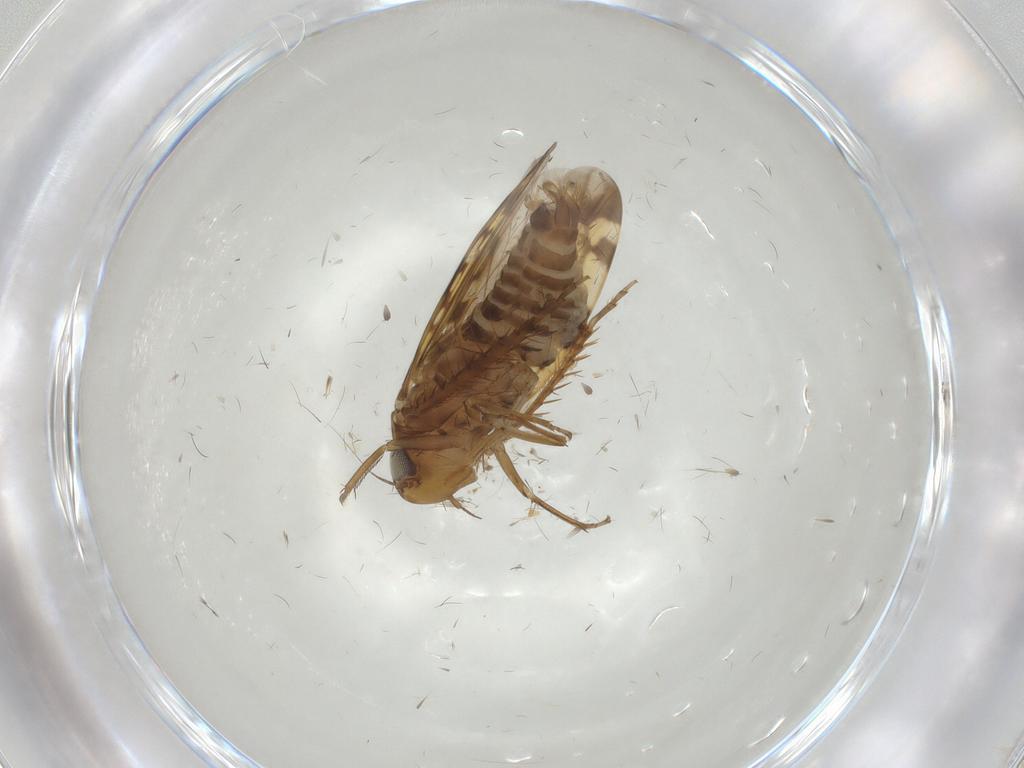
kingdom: Animalia
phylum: Arthropoda
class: Insecta
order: Hemiptera
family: Cicadellidae
